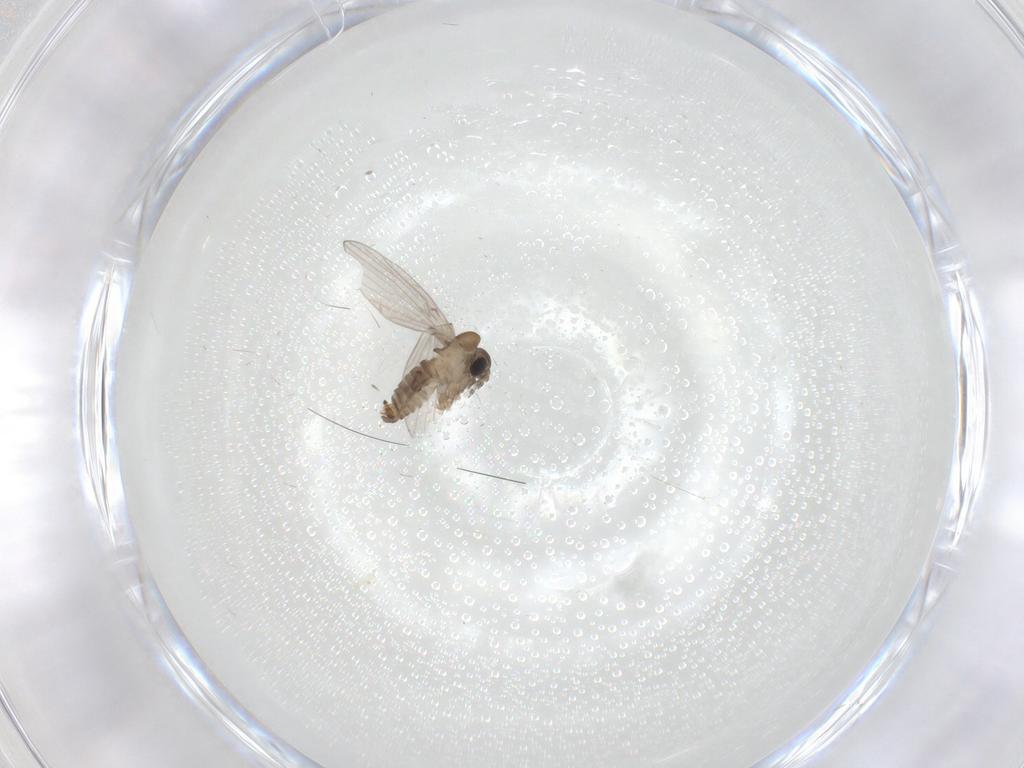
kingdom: Animalia
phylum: Arthropoda
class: Insecta
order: Diptera
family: Psychodidae
